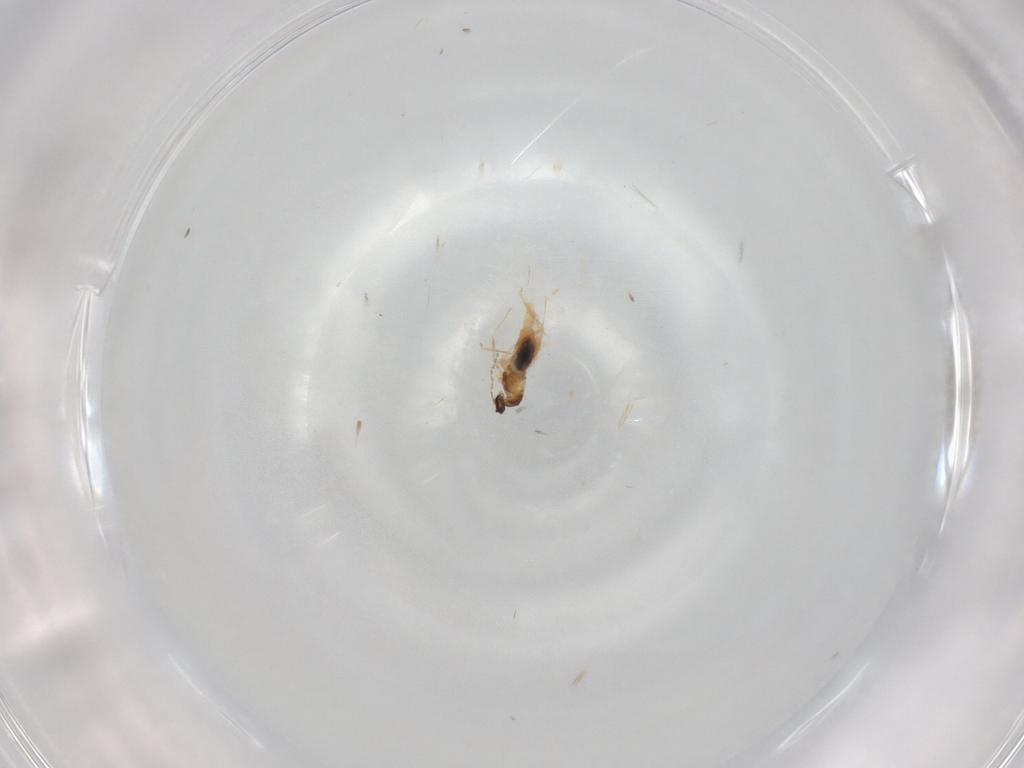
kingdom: Animalia
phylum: Arthropoda
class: Insecta
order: Diptera
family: Cecidomyiidae
